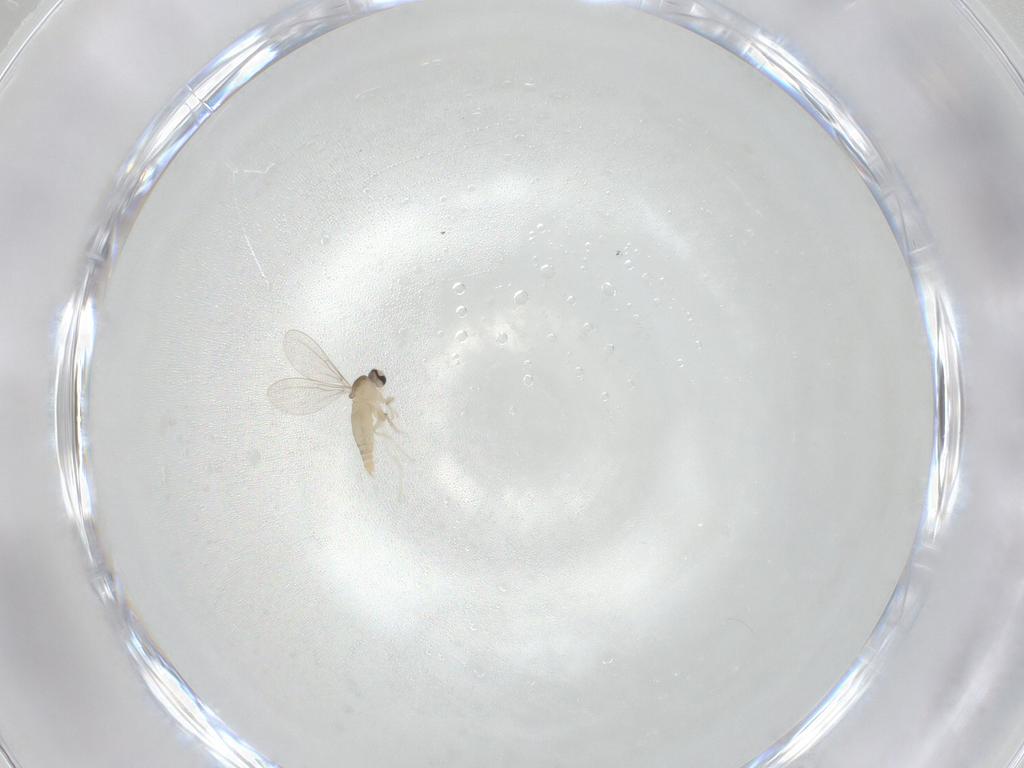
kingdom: Animalia
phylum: Arthropoda
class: Insecta
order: Diptera
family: Cecidomyiidae
